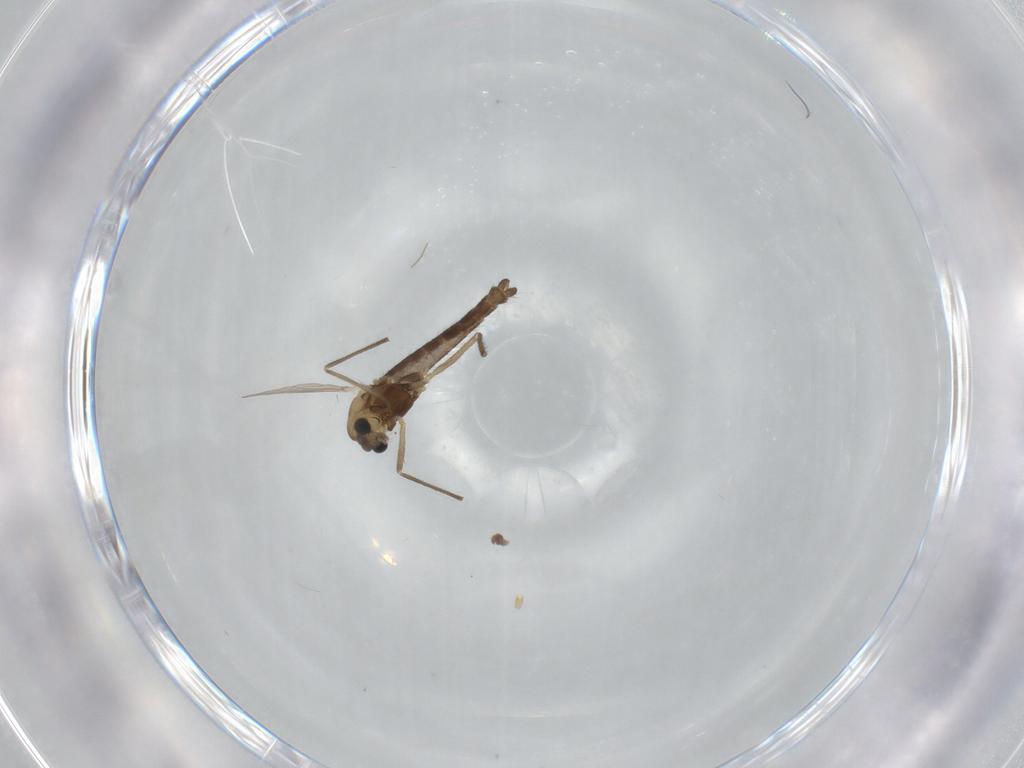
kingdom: Animalia
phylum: Arthropoda
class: Insecta
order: Diptera
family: Chironomidae
